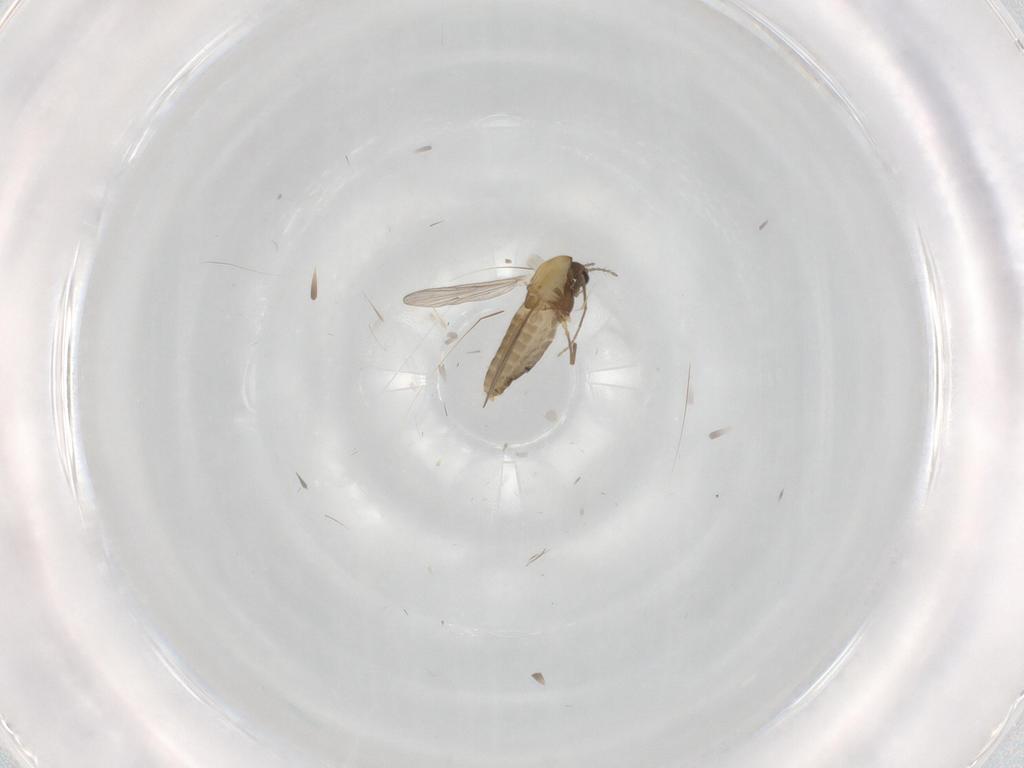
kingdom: Animalia
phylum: Arthropoda
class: Insecta
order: Diptera
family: Chironomidae
